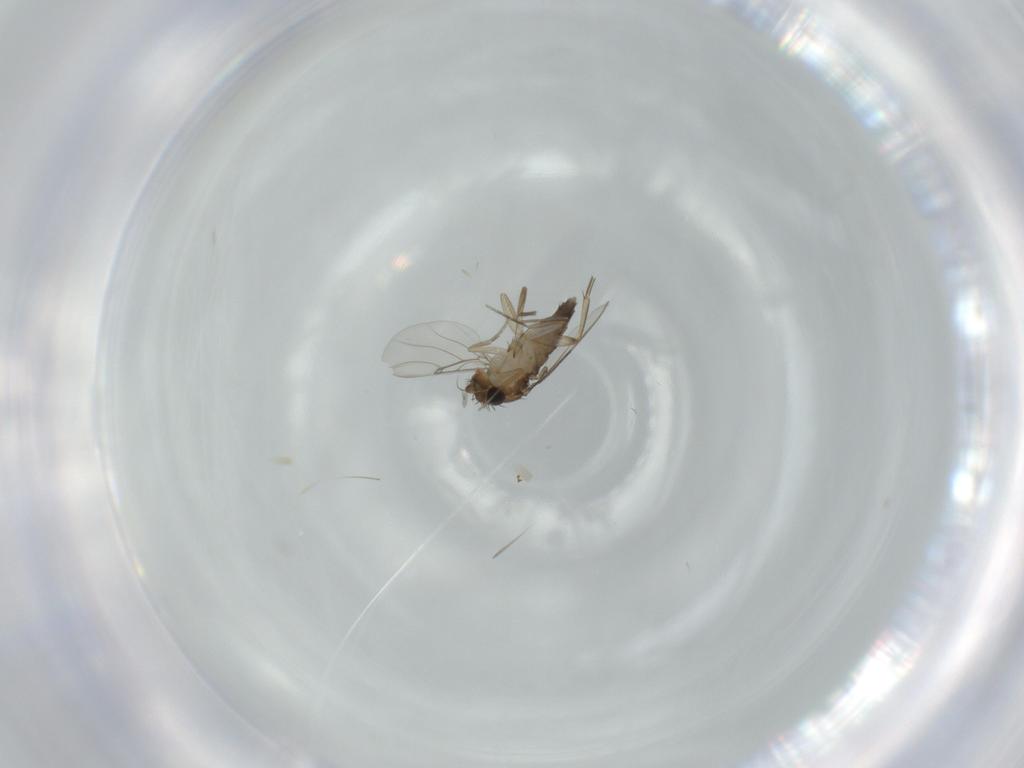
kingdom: Animalia
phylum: Arthropoda
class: Insecta
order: Diptera
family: Phoridae
